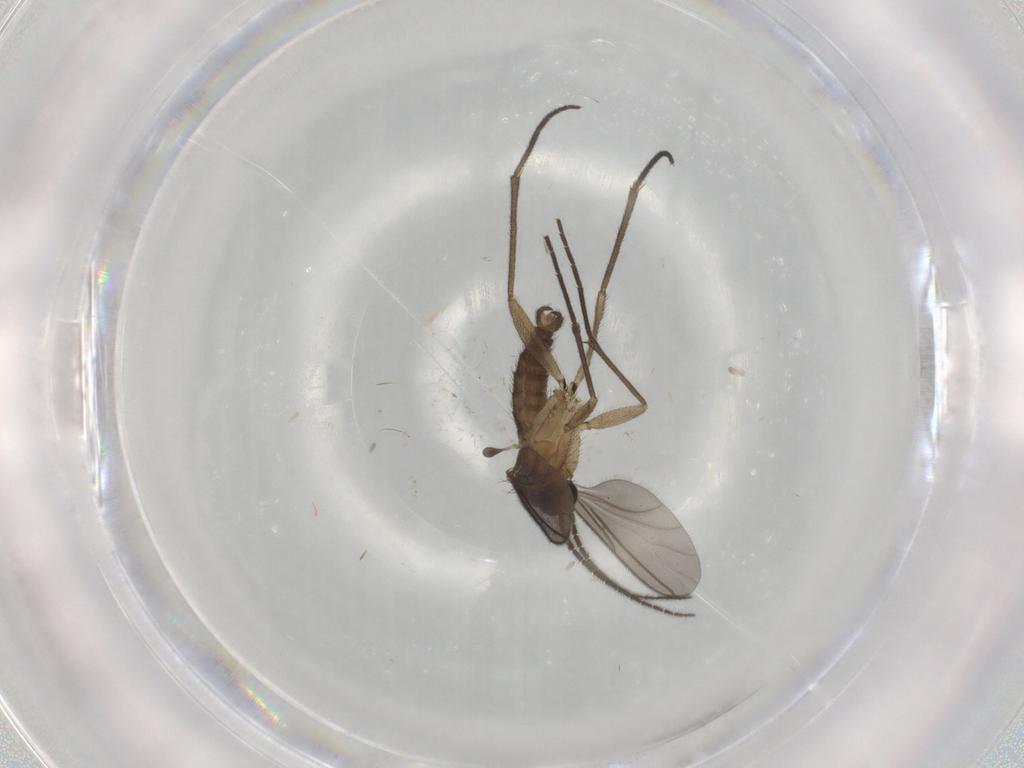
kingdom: Animalia
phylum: Arthropoda
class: Insecta
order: Diptera
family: Sciaridae
